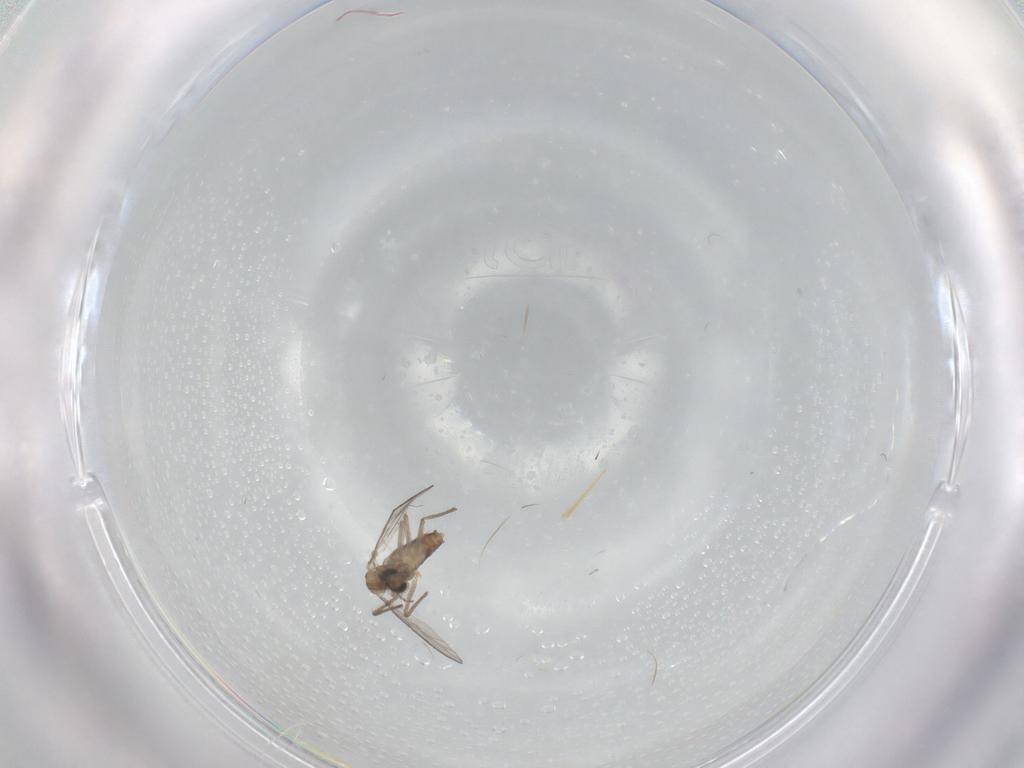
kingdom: Animalia
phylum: Arthropoda
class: Insecta
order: Diptera
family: Chironomidae
